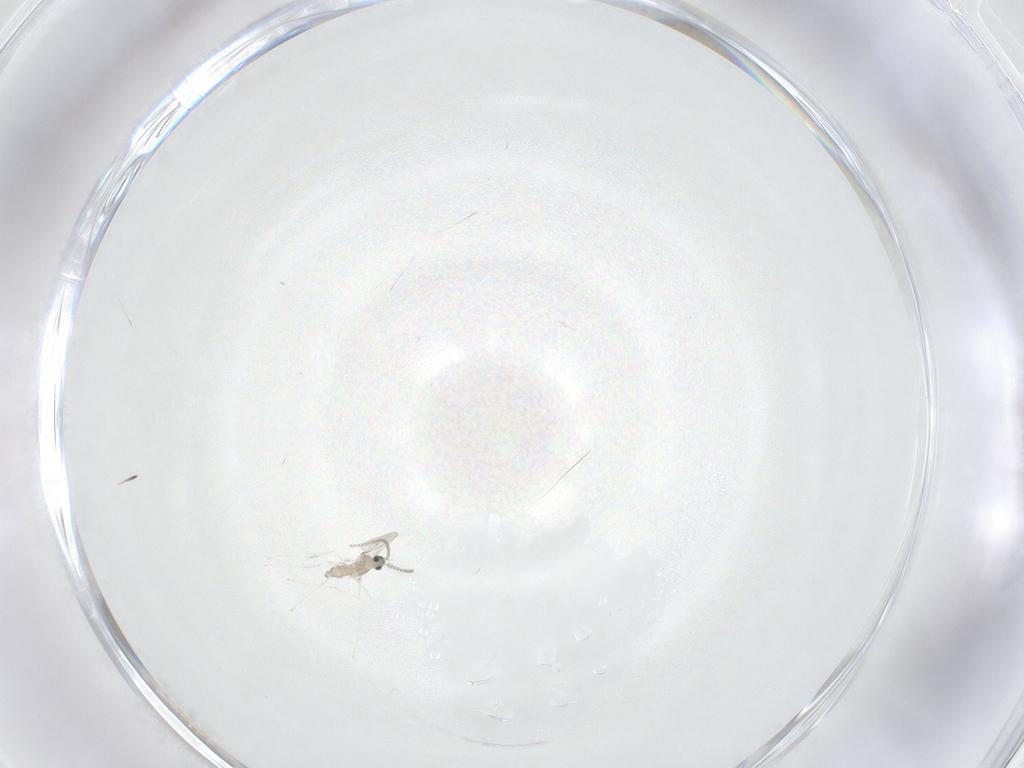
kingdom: Animalia
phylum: Arthropoda
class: Insecta
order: Diptera
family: Cecidomyiidae
